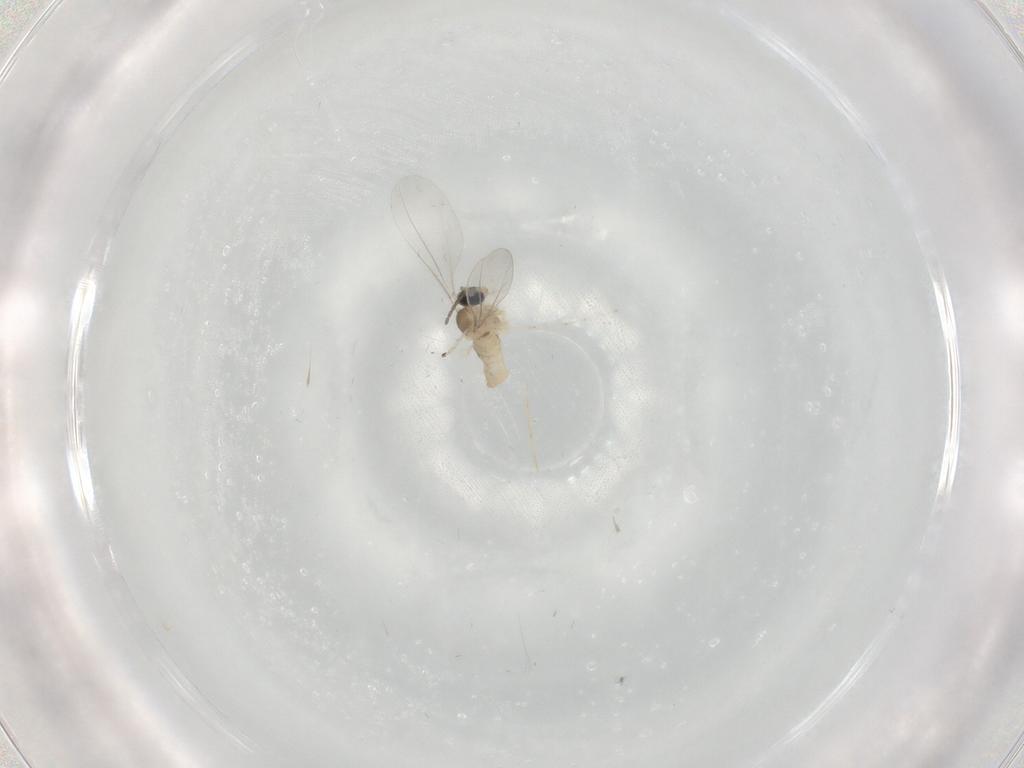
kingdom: Animalia
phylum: Arthropoda
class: Insecta
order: Diptera
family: Cecidomyiidae
